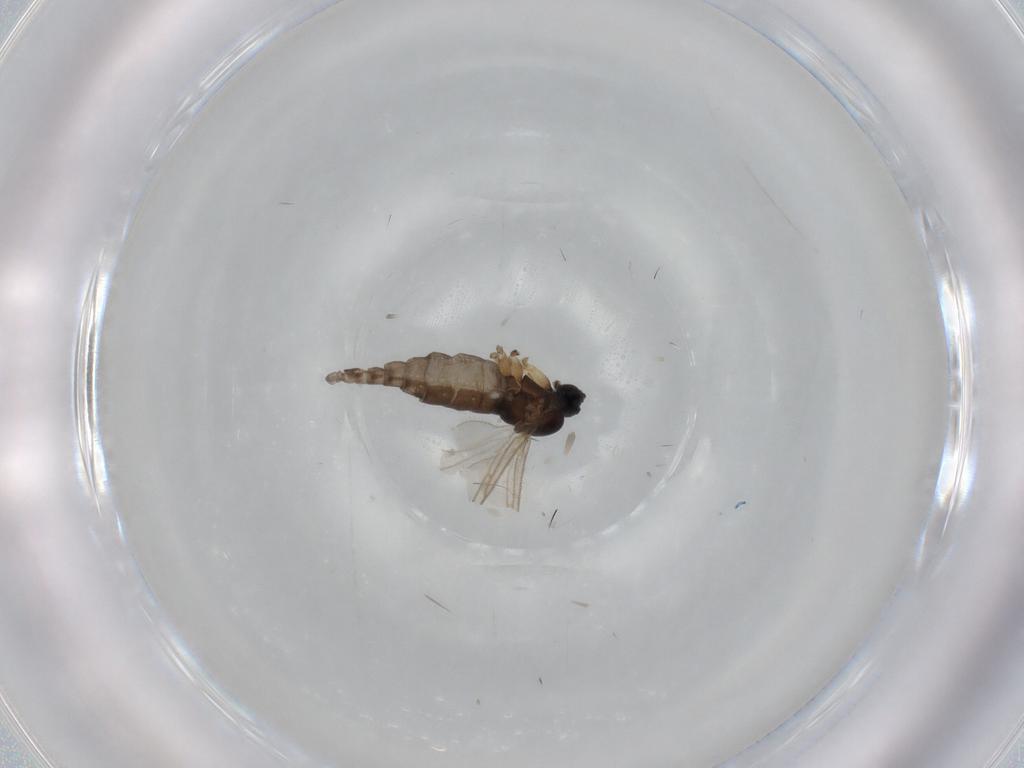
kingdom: Animalia
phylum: Arthropoda
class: Insecta
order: Diptera
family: Sciaridae
